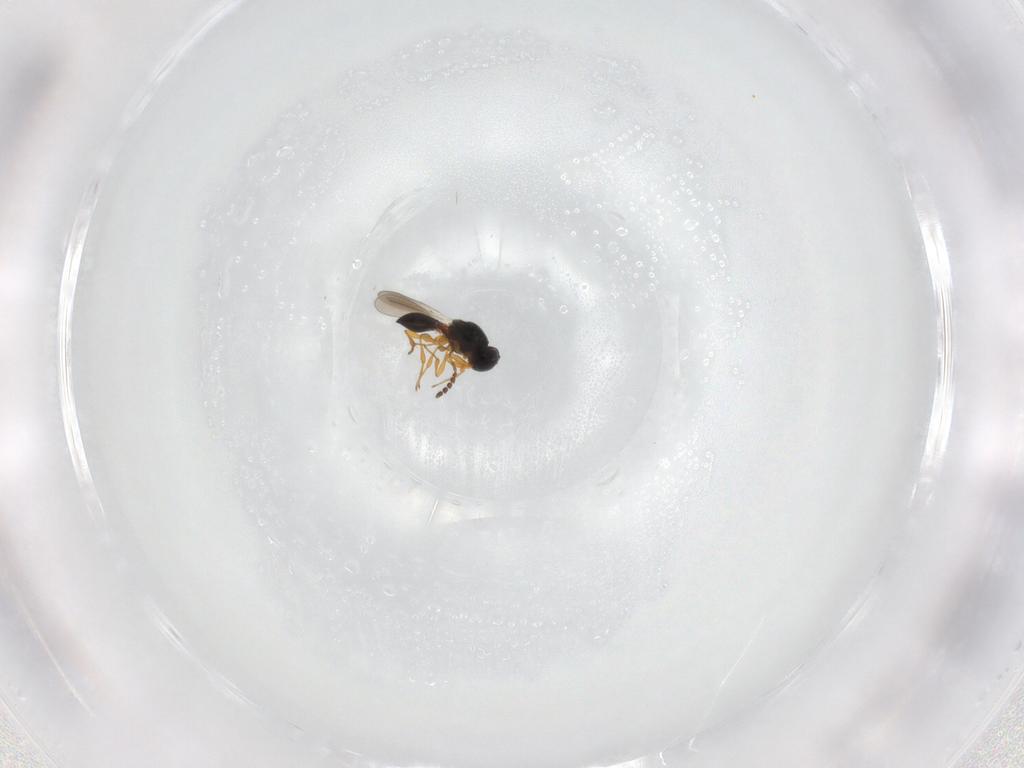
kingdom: Animalia
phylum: Arthropoda
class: Insecta
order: Hymenoptera
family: Platygastridae
